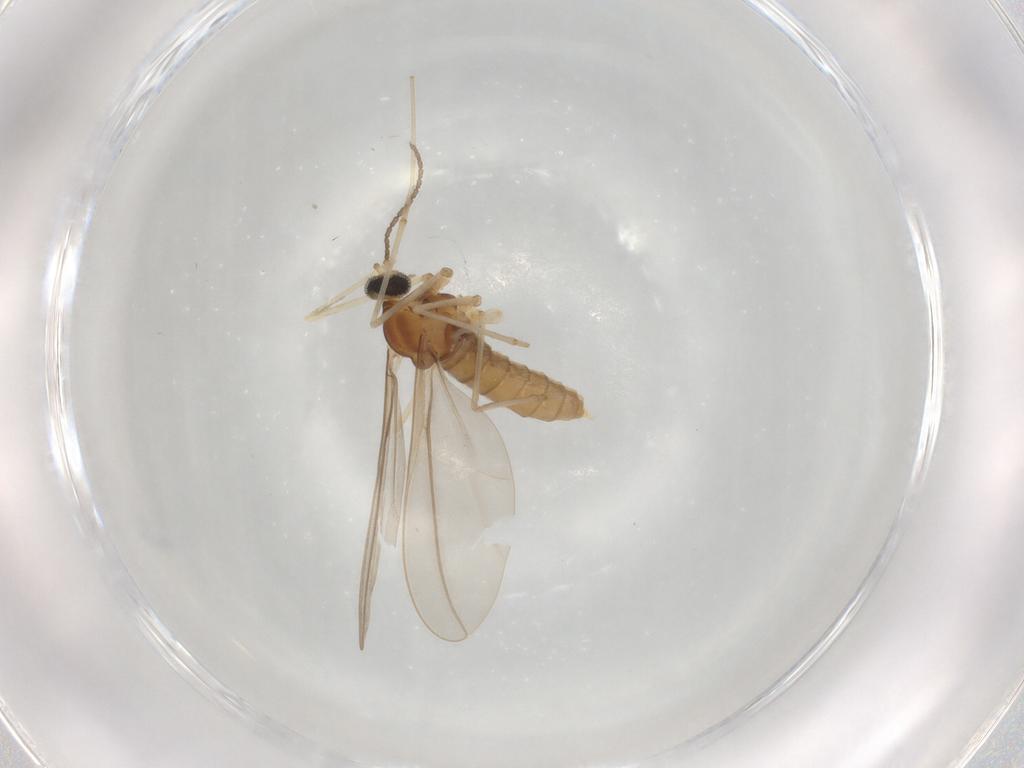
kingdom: Animalia
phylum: Arthropoda
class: Insecta
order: Diptera
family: Cecidomyiidae
